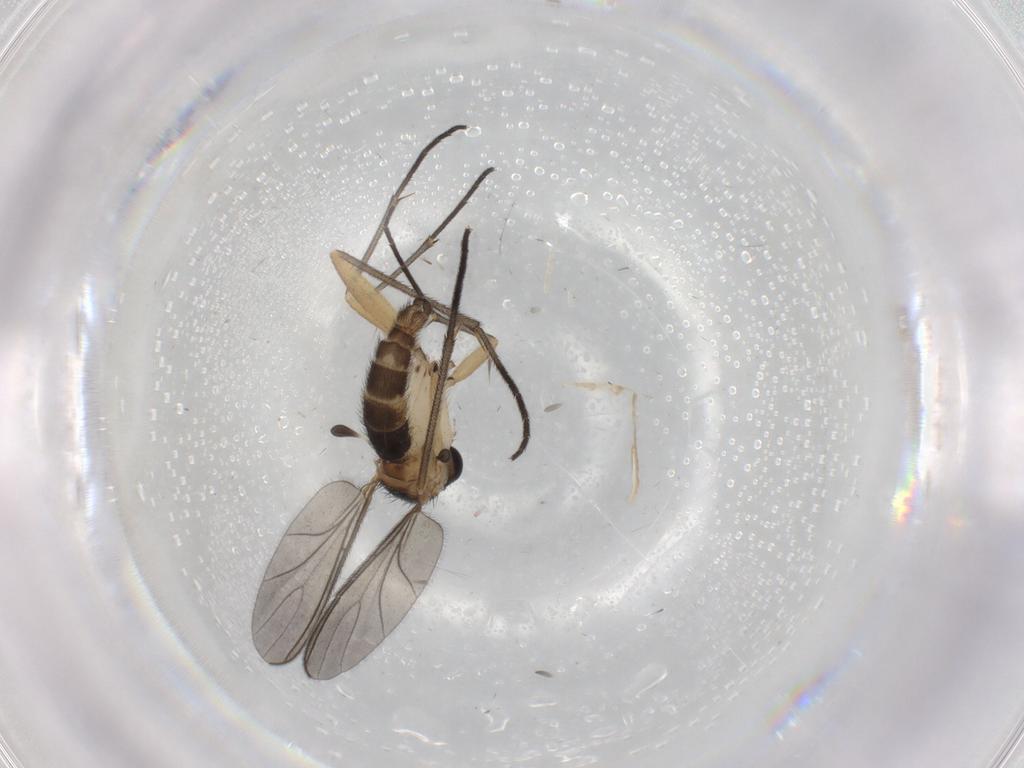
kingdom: Animalia
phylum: Arthropoda
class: Insecta
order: Diptera
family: Sciaridae
